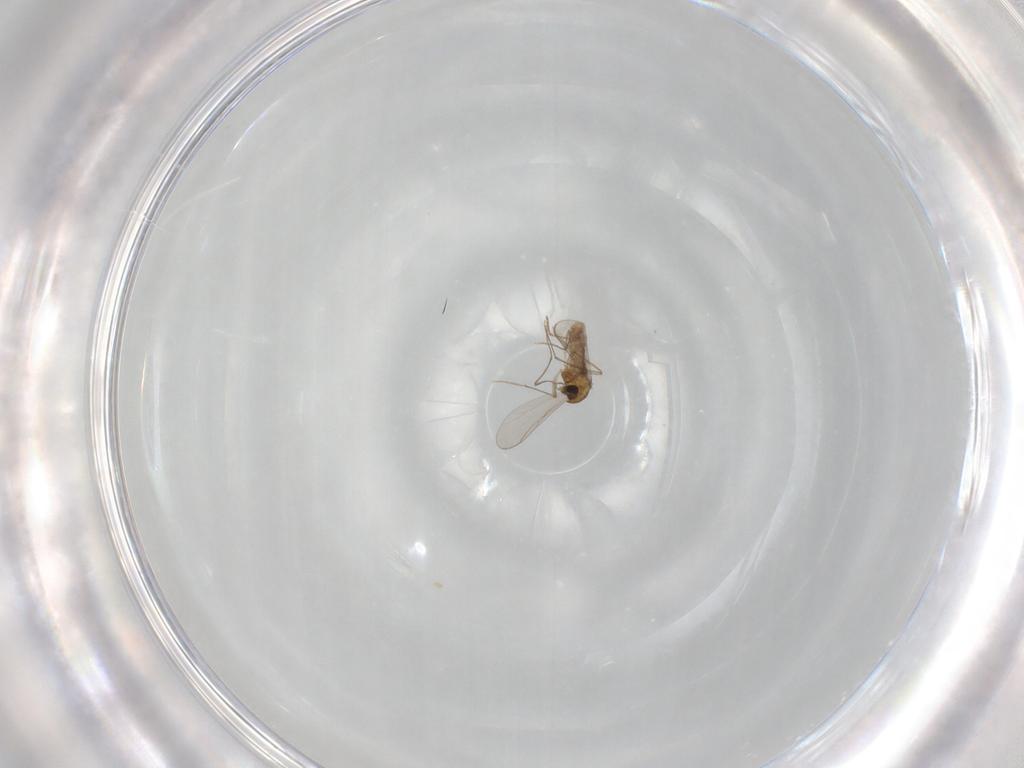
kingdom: Animalia
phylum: Arthropoda
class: Insecta
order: Diptera
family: Chironomidae
